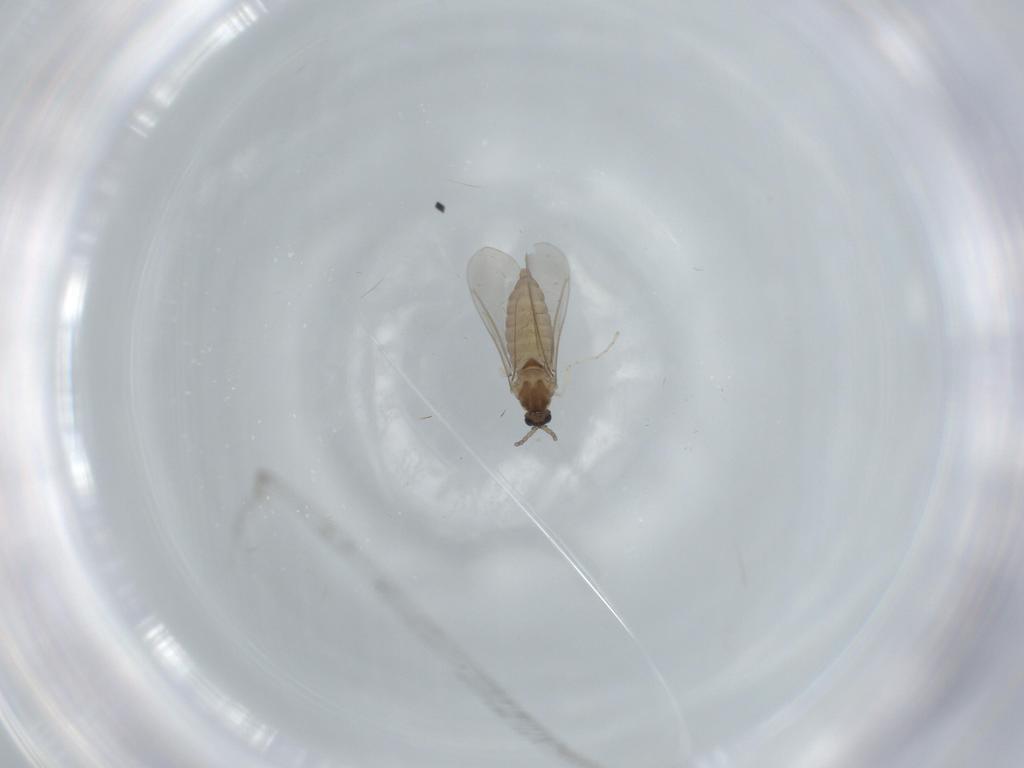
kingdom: Animalia
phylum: Arthropoda
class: Insecta
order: Diptera
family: Cecidomyiidae
